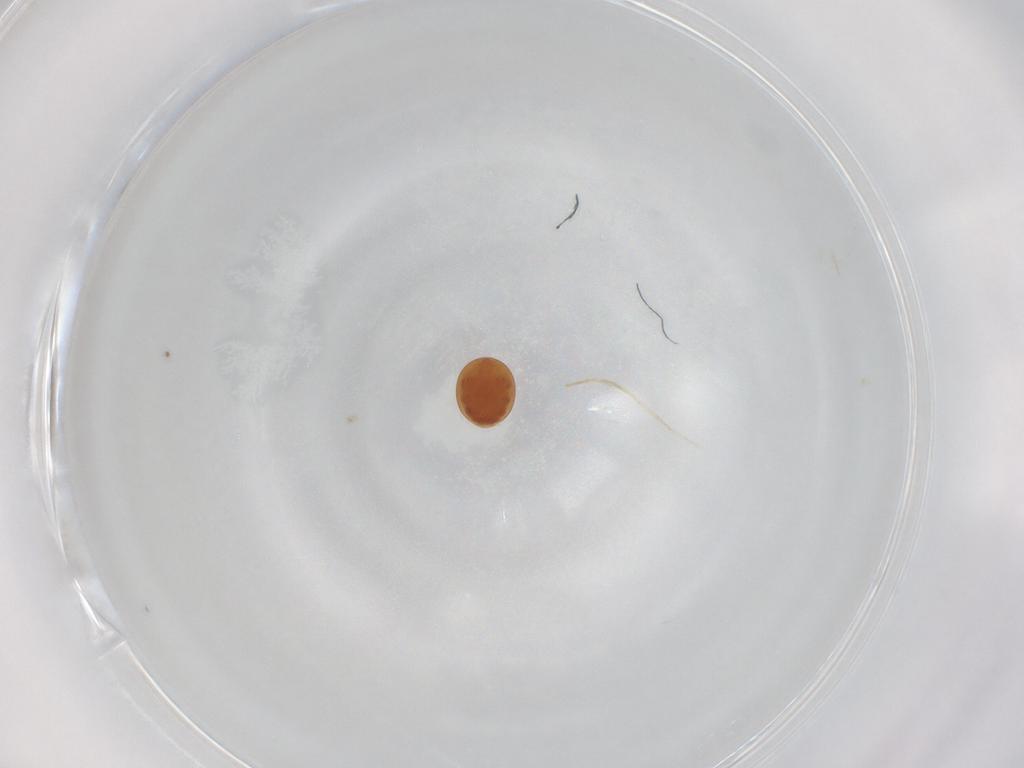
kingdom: Animalia
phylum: Arthropoda
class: Arachnida
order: Mesostigmata
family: Uropodidae
